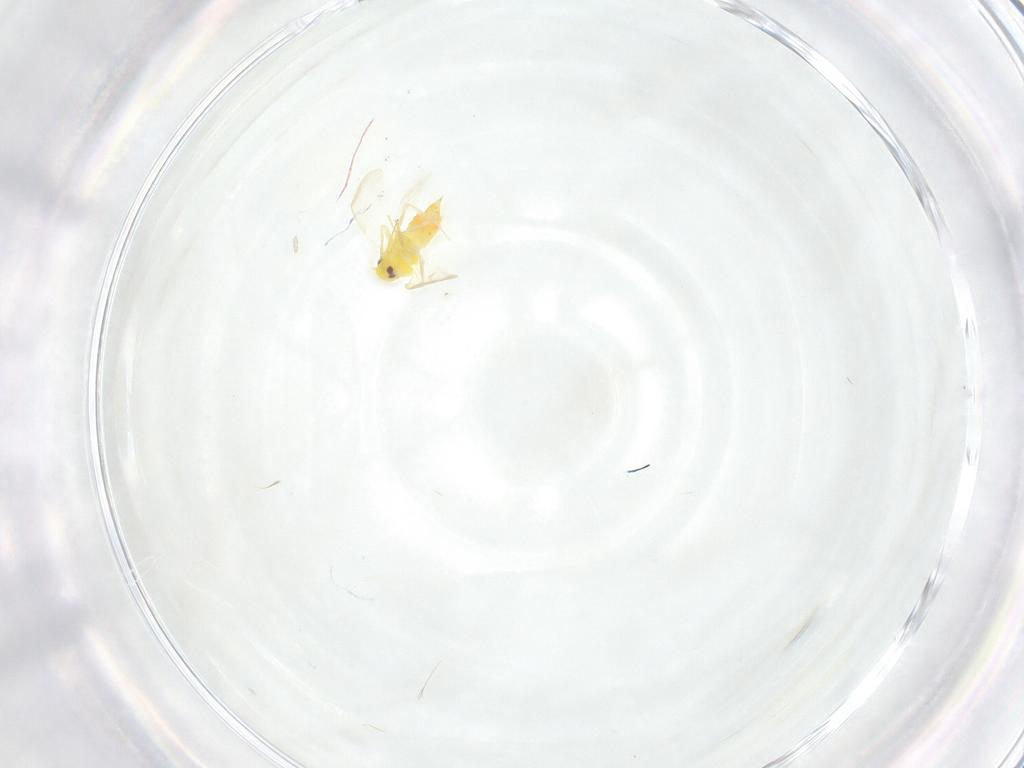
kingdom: Animalia
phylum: Arthropoda
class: Insecta
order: Hemiptera
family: Aleyrodidae
